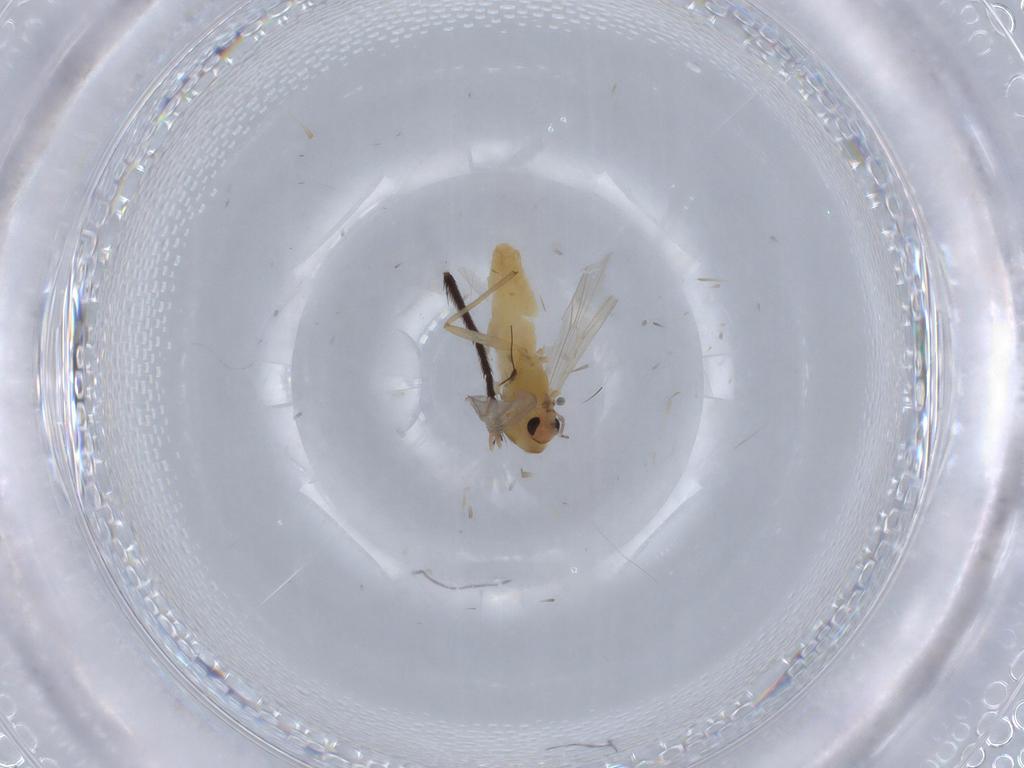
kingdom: Animalia
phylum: Arthropoda
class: Insecta
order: Diptera
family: Chironomidae
